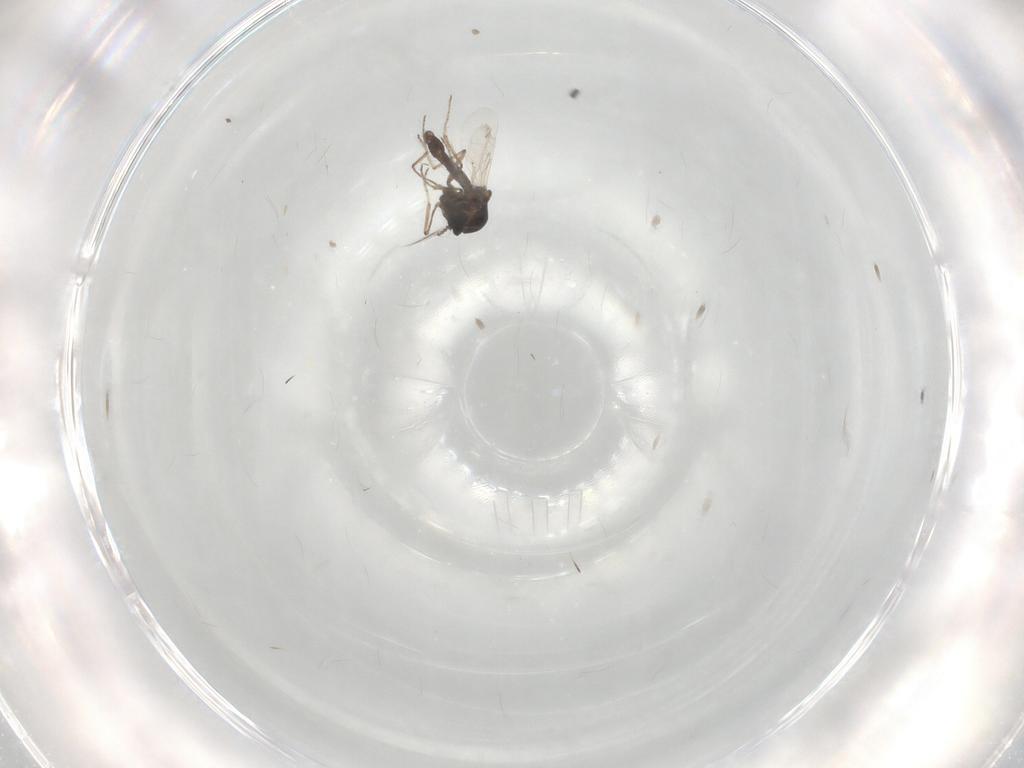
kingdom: Animalia
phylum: Arthropoda
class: Insecta
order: Diptera
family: Ceratopogonidae
